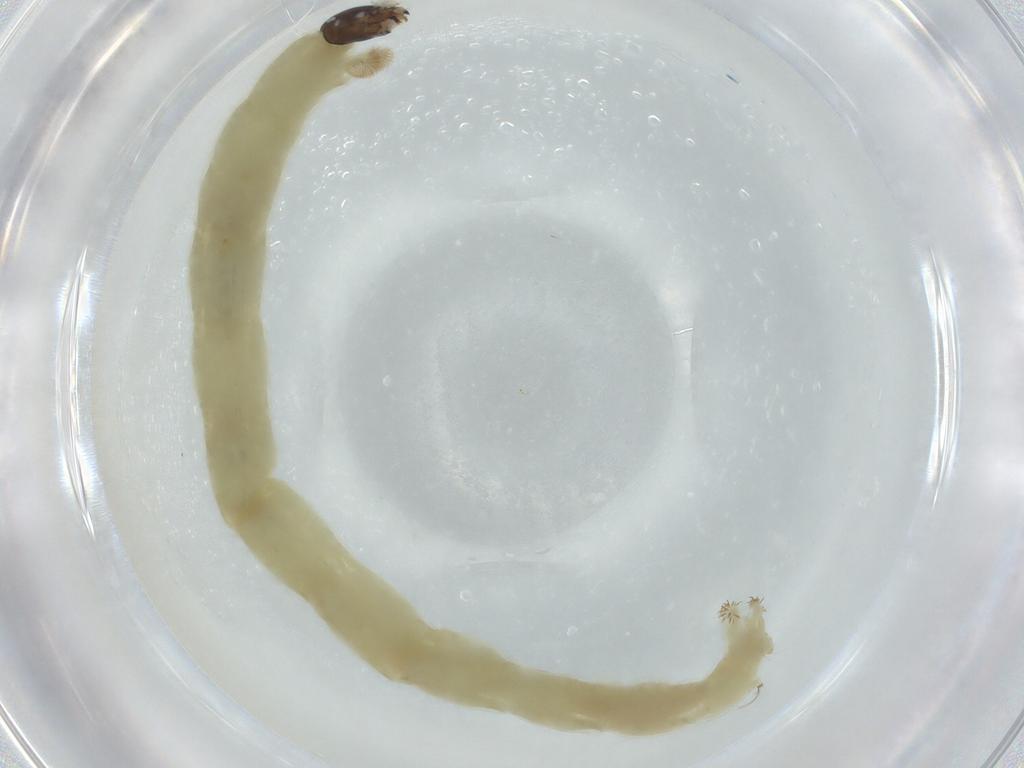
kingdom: Animalia
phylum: Arthropoda
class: Insecta
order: Diptera
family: Chironomidae
